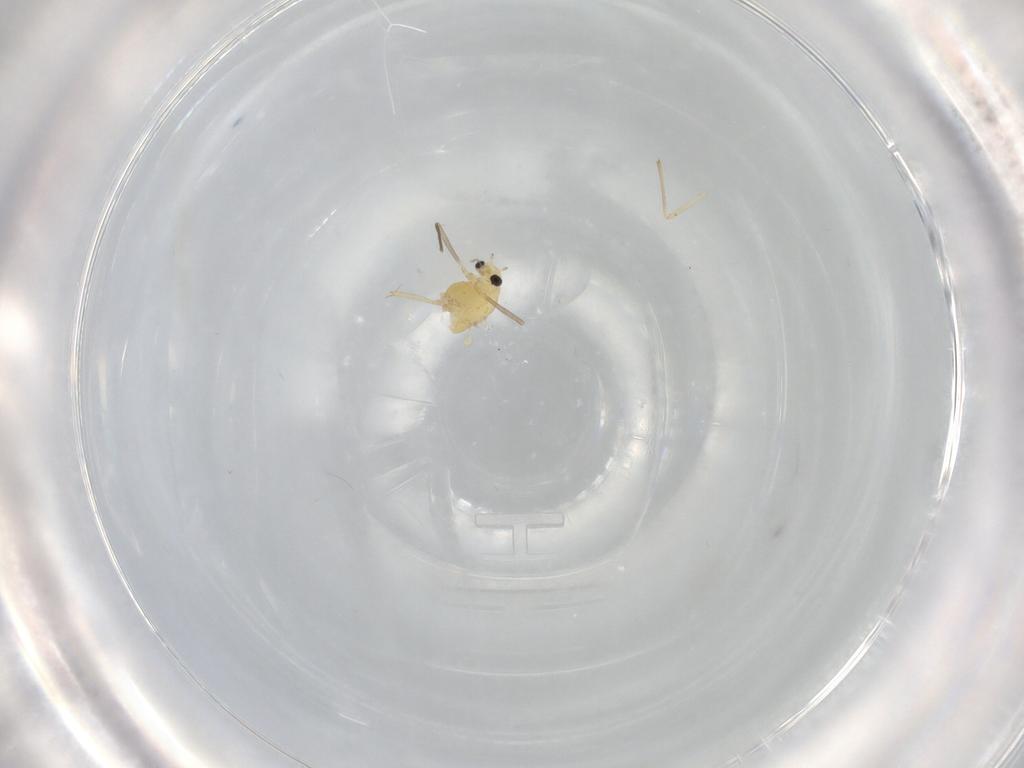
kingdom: Animalia
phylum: Arthropoda
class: Insecta
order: Diptera
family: Chironomidae
